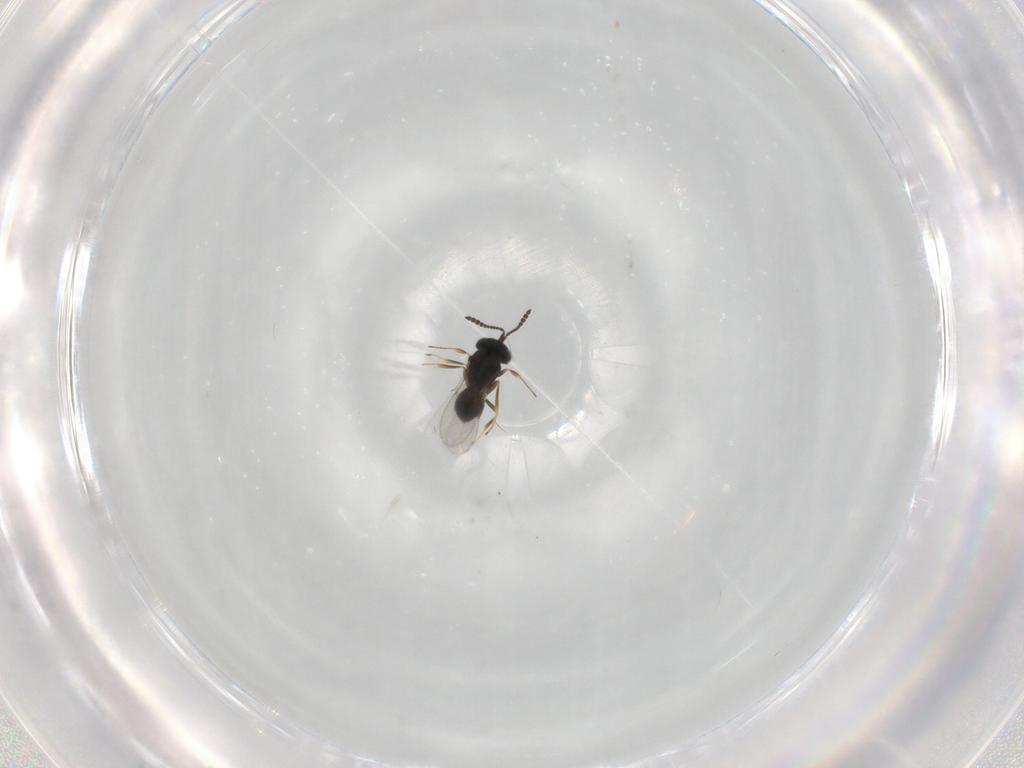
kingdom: Animalia
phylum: Arthropoda
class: Insecta
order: Hymenoptera
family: Scelionidae
